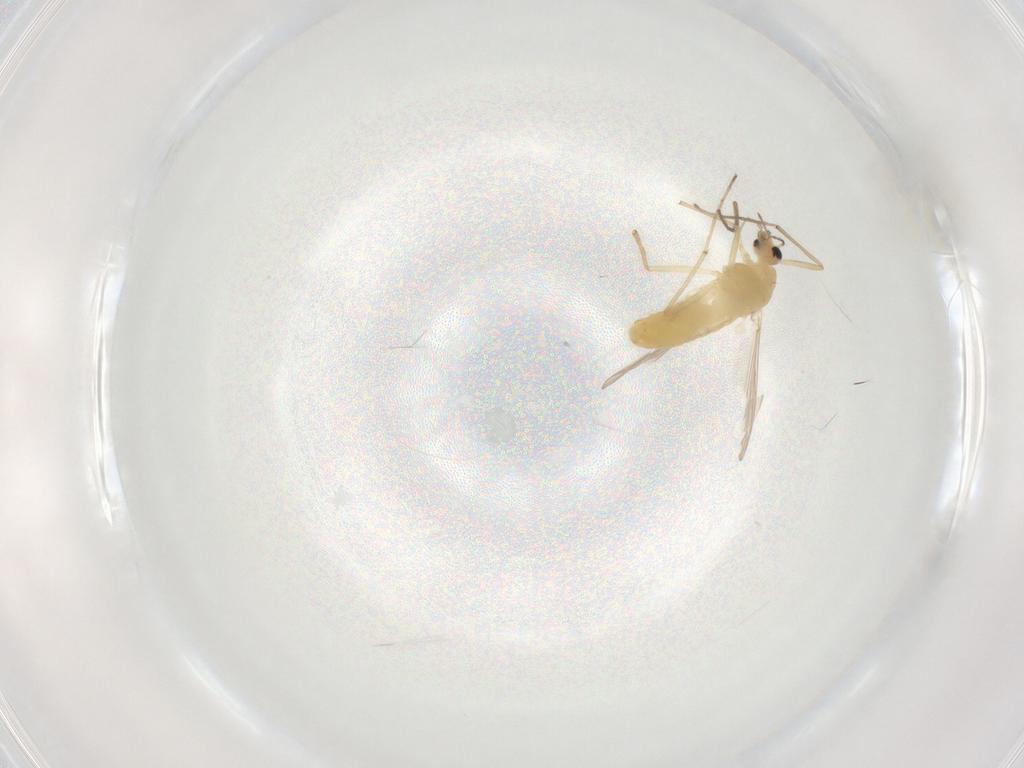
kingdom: Animalia
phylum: Arthropoda
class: Insecta
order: Diptera
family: Chironomidae
